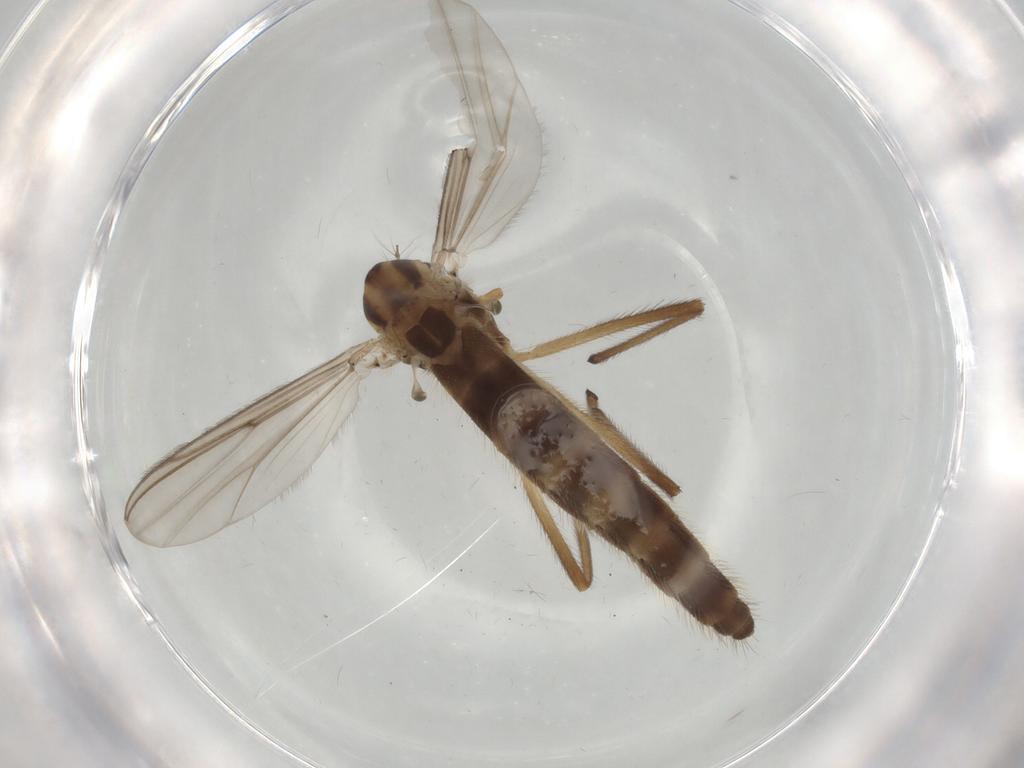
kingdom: Animalia
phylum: Arthropoda
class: Insecta
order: Diptera
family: Chironomidae
